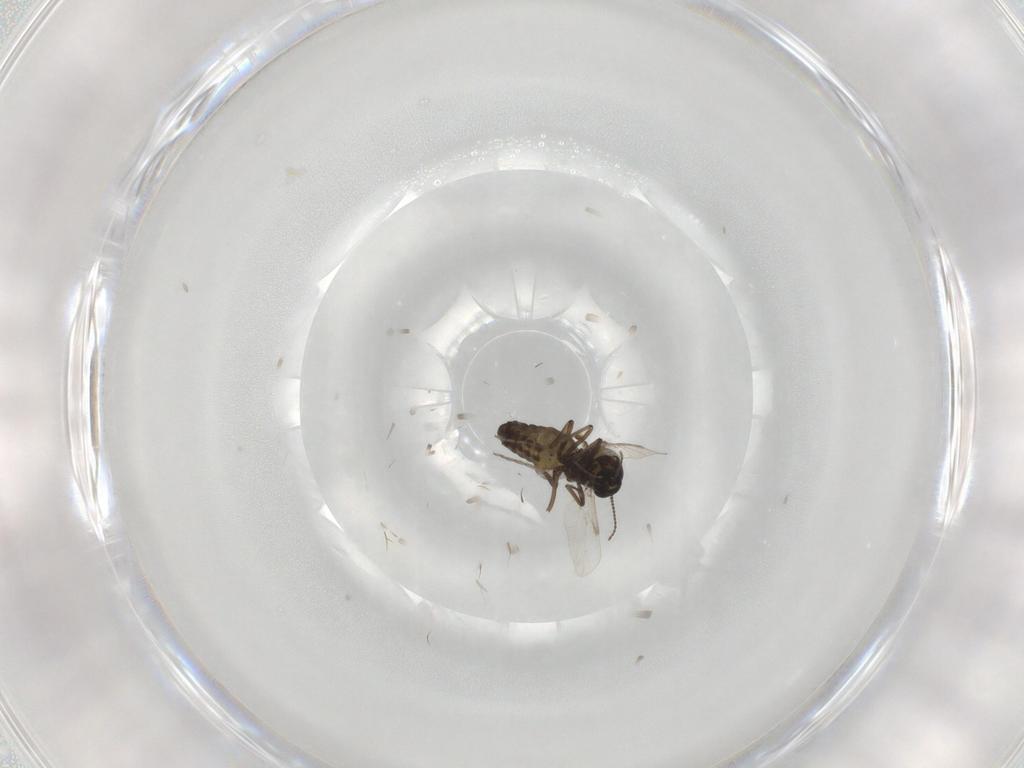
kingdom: Animalia
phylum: Arthropoda
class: Insecta
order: Diptera
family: Ceratopogonidae
